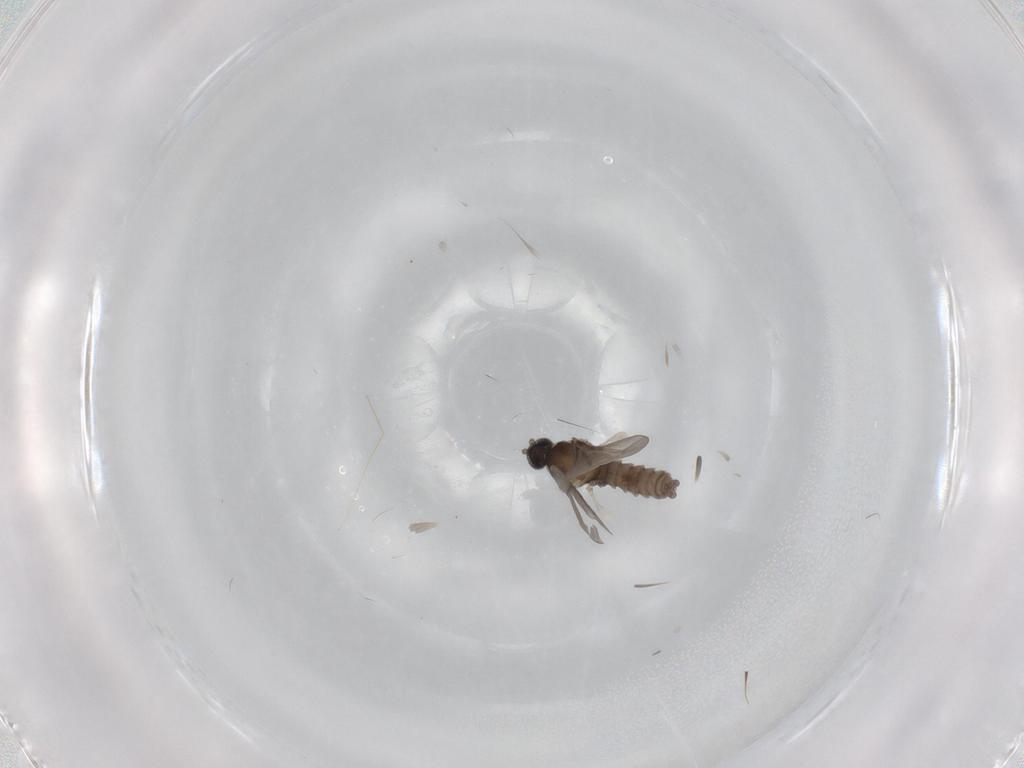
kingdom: Animalia
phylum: Arthropoda
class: Insecta
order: Diptera
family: Cecidomyiidae
